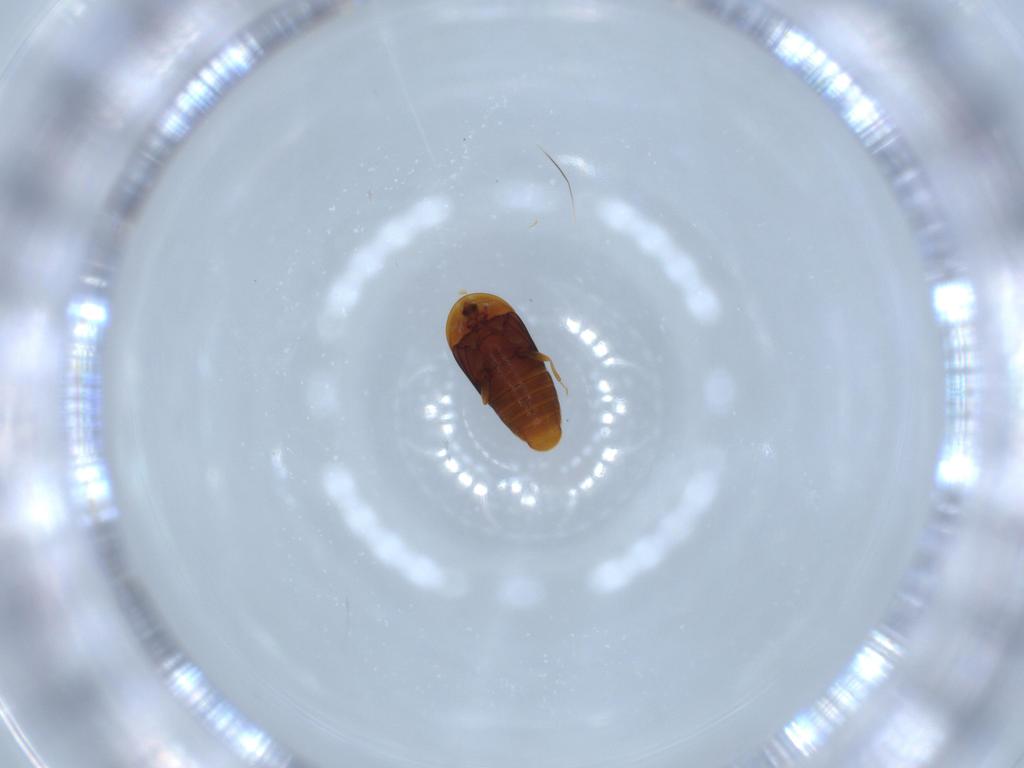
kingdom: Animalia
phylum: Arthropoda
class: Insecta
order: Coleoptera
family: Corylophidae
